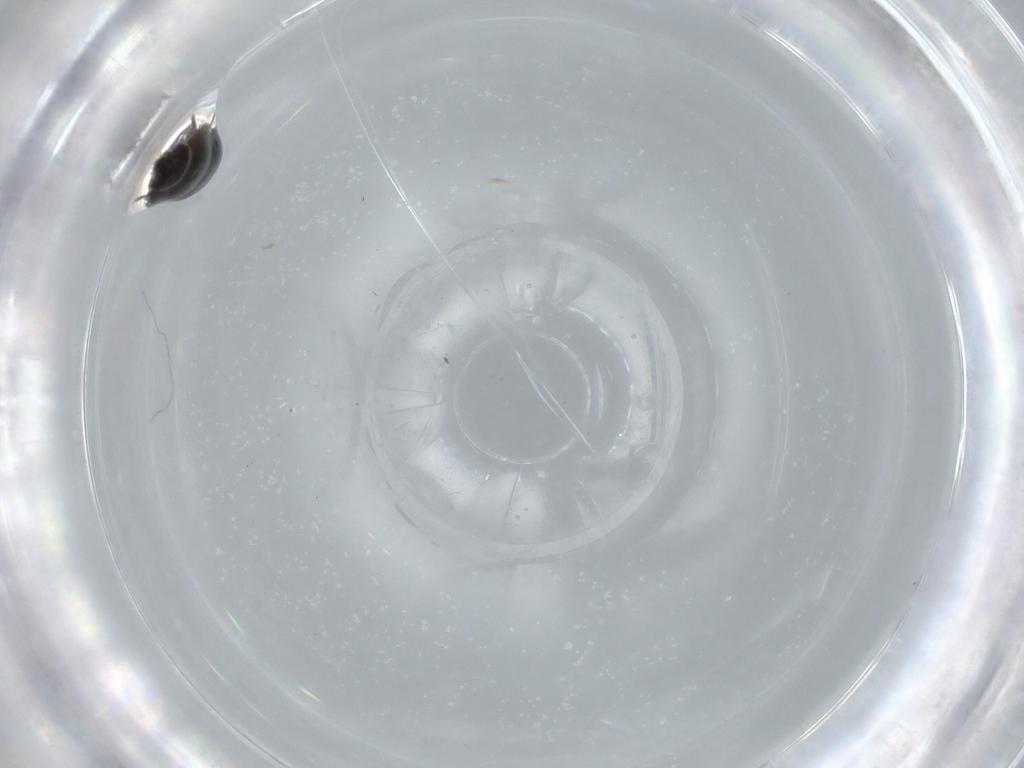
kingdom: Animalia
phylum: Arthropoda
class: Insecta
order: Coleoptera
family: Ptiliidae
